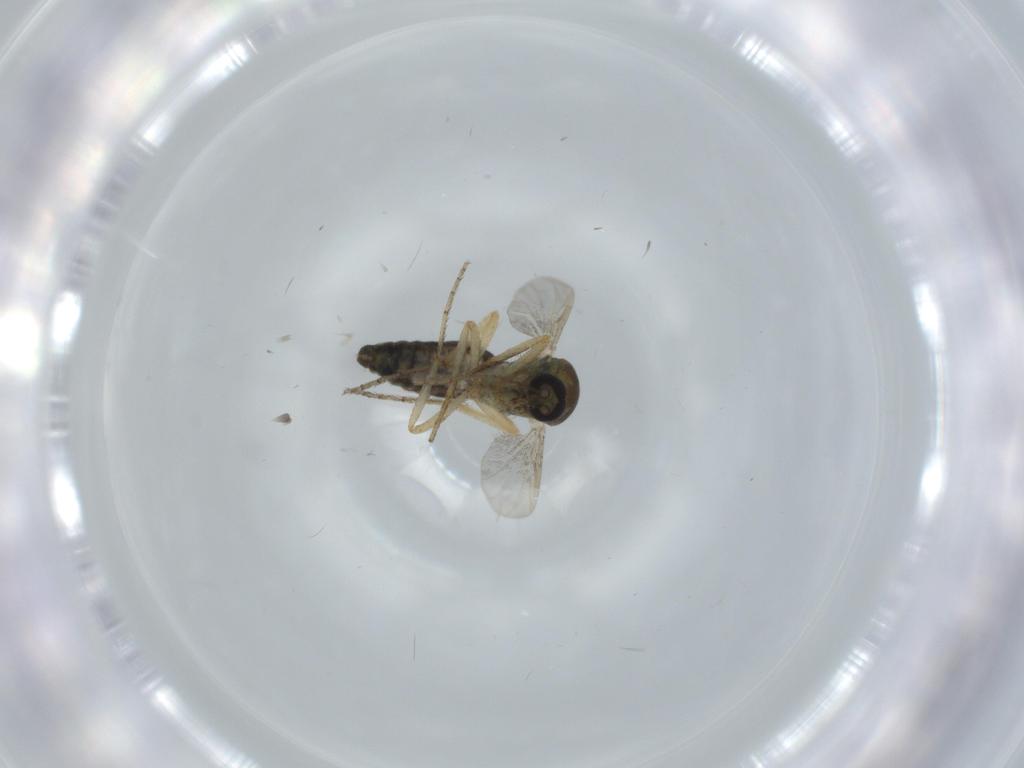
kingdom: Animalia
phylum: Arthropoda
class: Insecta
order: Diptera
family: Ceratopogonidae
